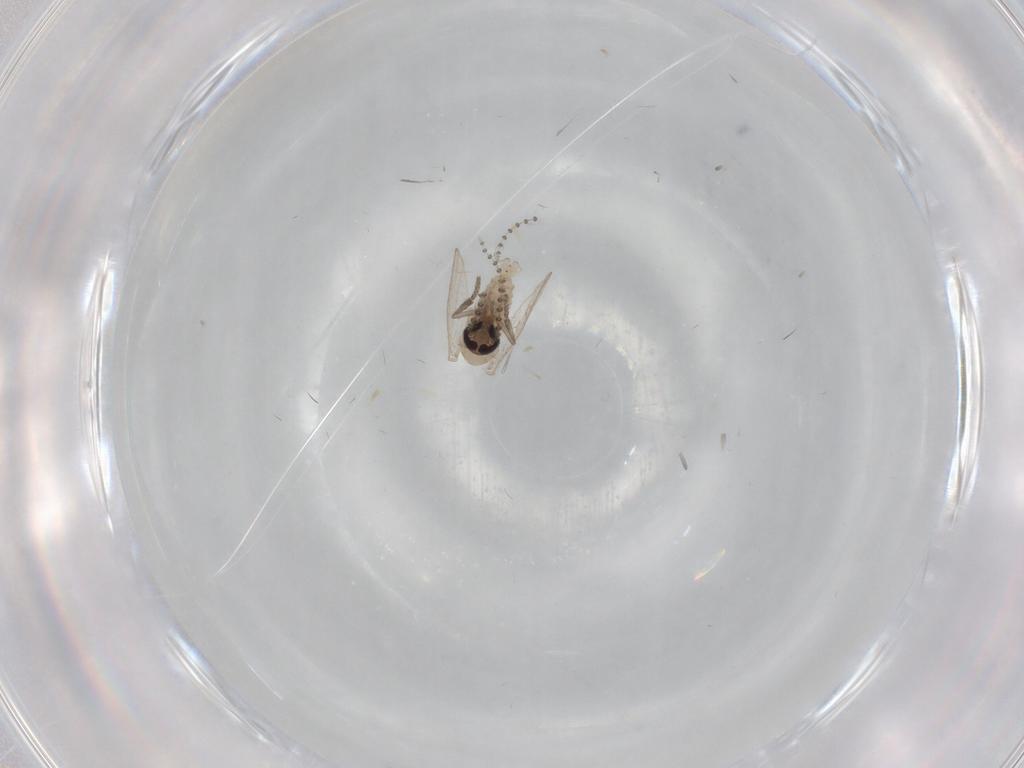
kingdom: Animalia
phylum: Arthropoda
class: Insecta
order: Diptera
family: Psychodidae
